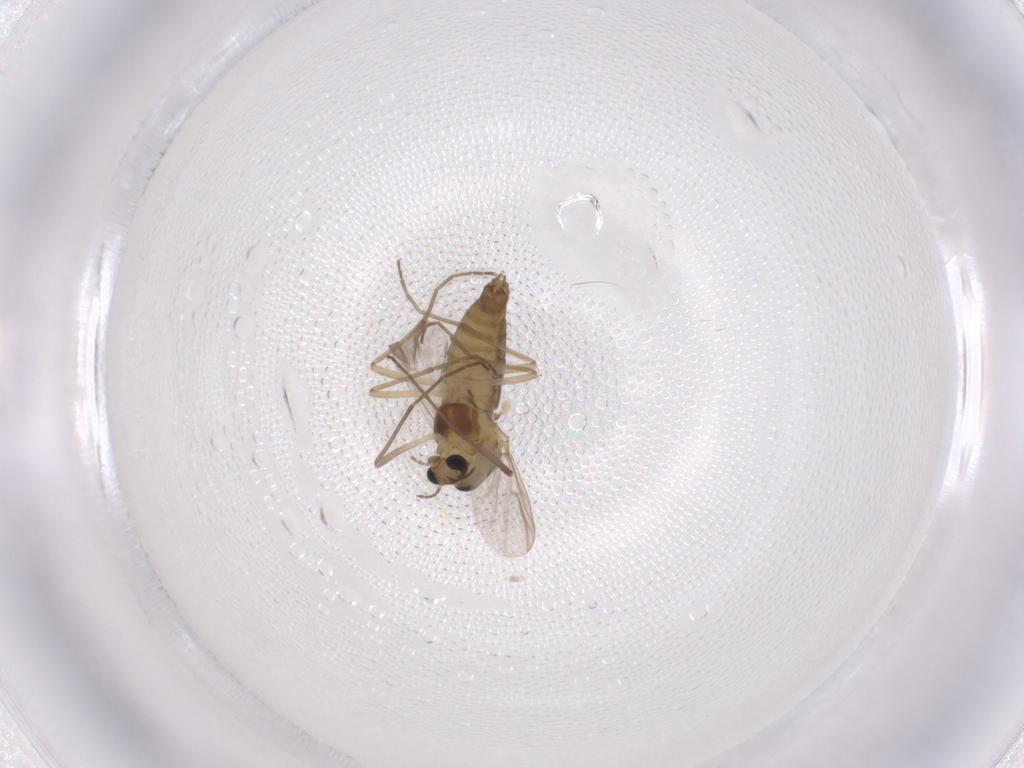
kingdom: Animalia
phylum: Arthropoda
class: Insecta
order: Diptera
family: Chironomidae
